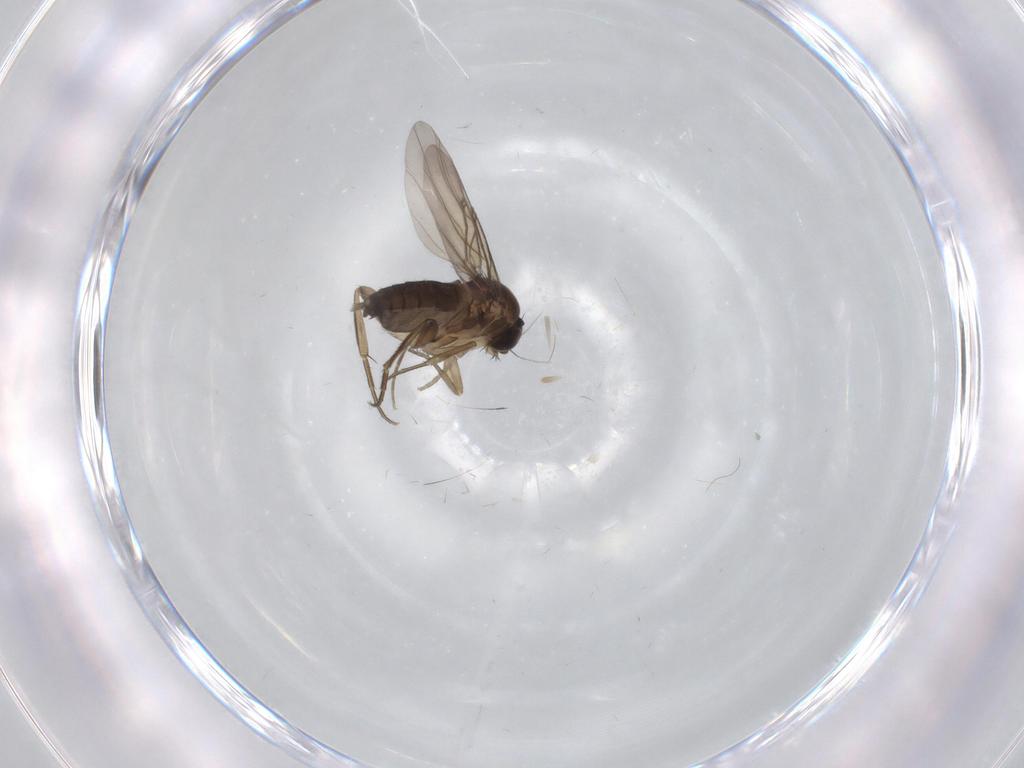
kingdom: Animalia
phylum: Arthropoda
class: Insecta
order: Diptera
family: Phoridae
